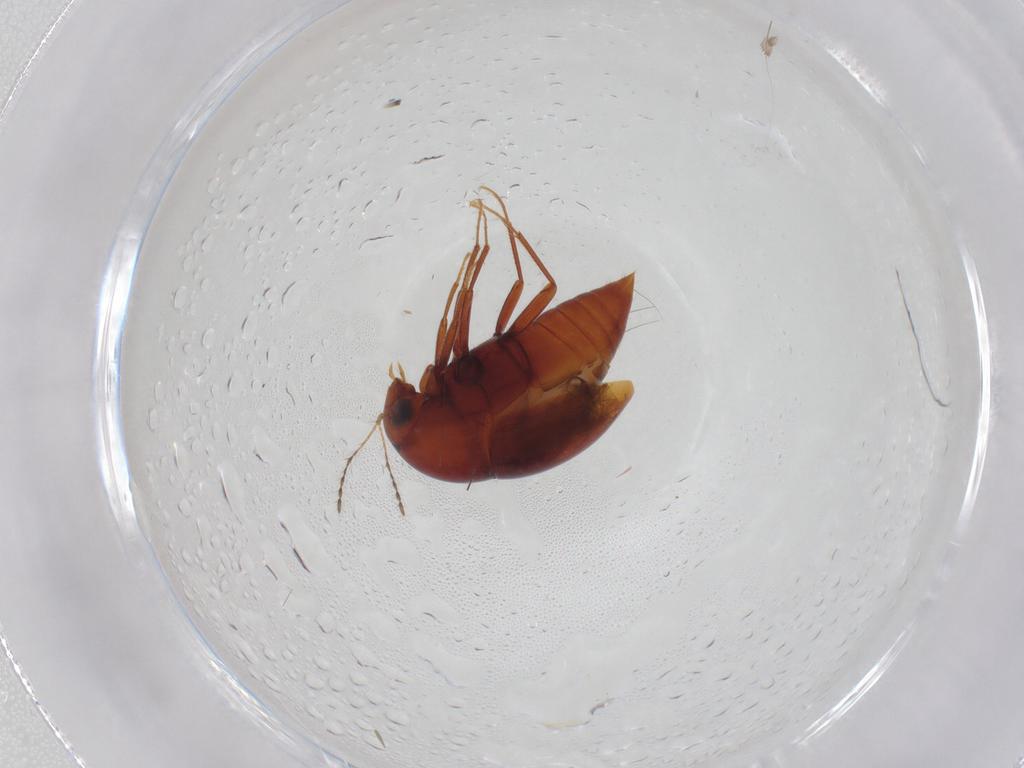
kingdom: Animalia
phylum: Arthropoda
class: Insecta
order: Coleoptera
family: Staphylinidae
